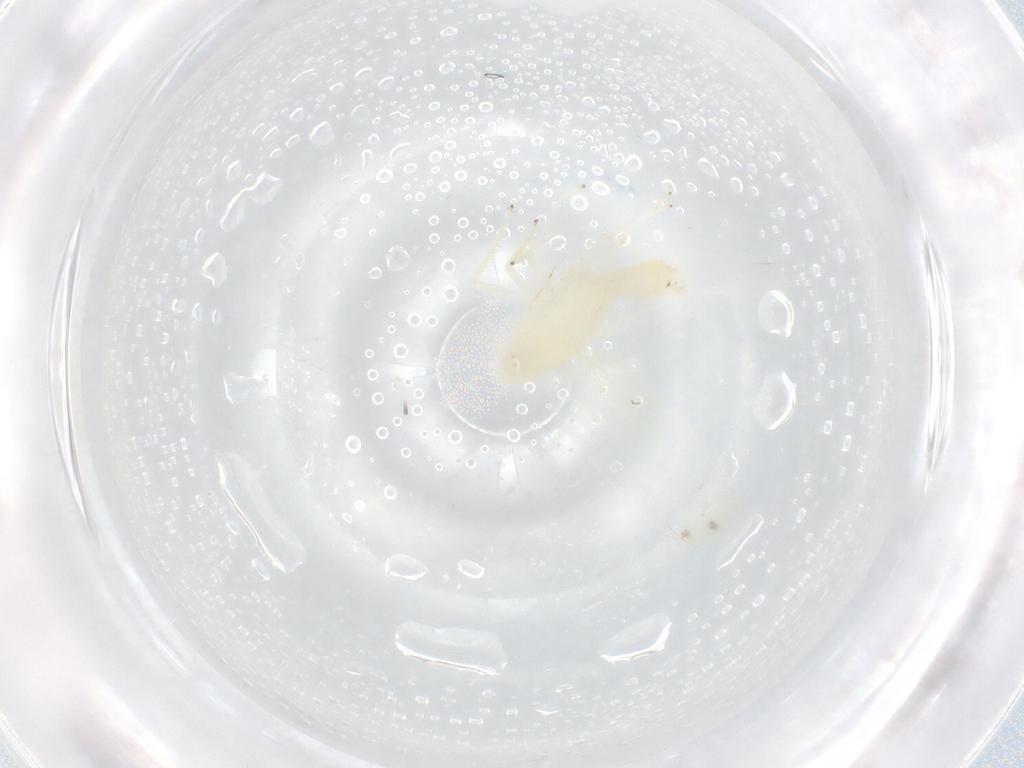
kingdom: Animalia
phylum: Arthropoda
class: Insecta
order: Hemiptera
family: Cicadellidae
